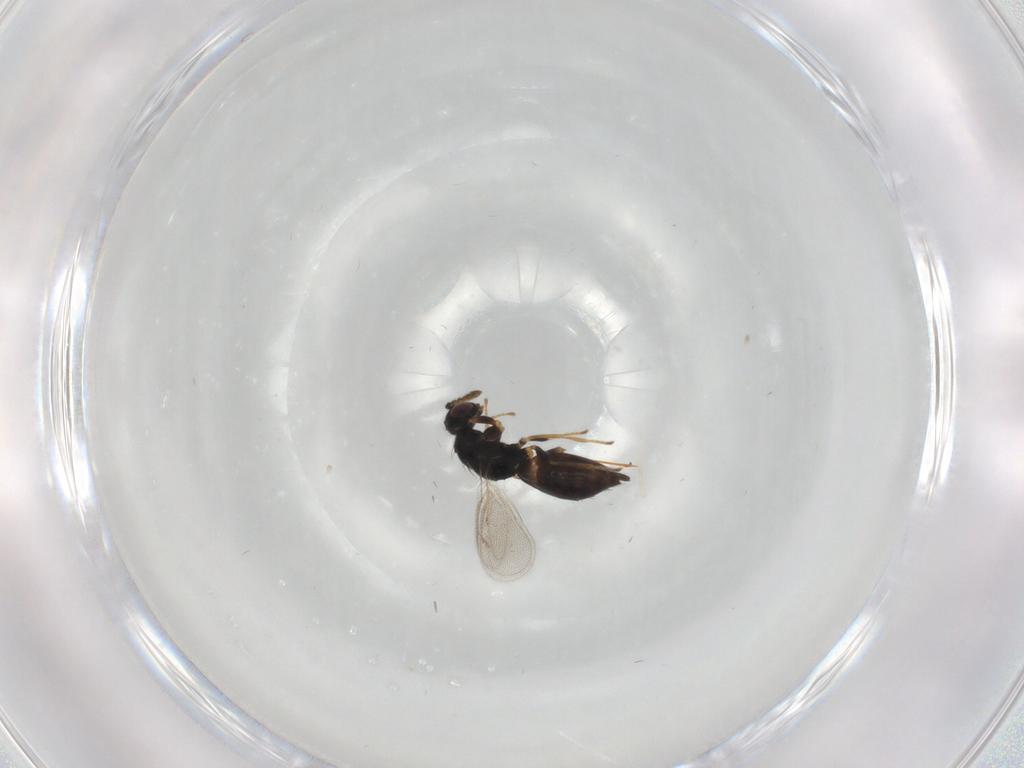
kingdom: Animalia
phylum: Arthropoda
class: Insecta
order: Hymenoptera
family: Eulophidae
